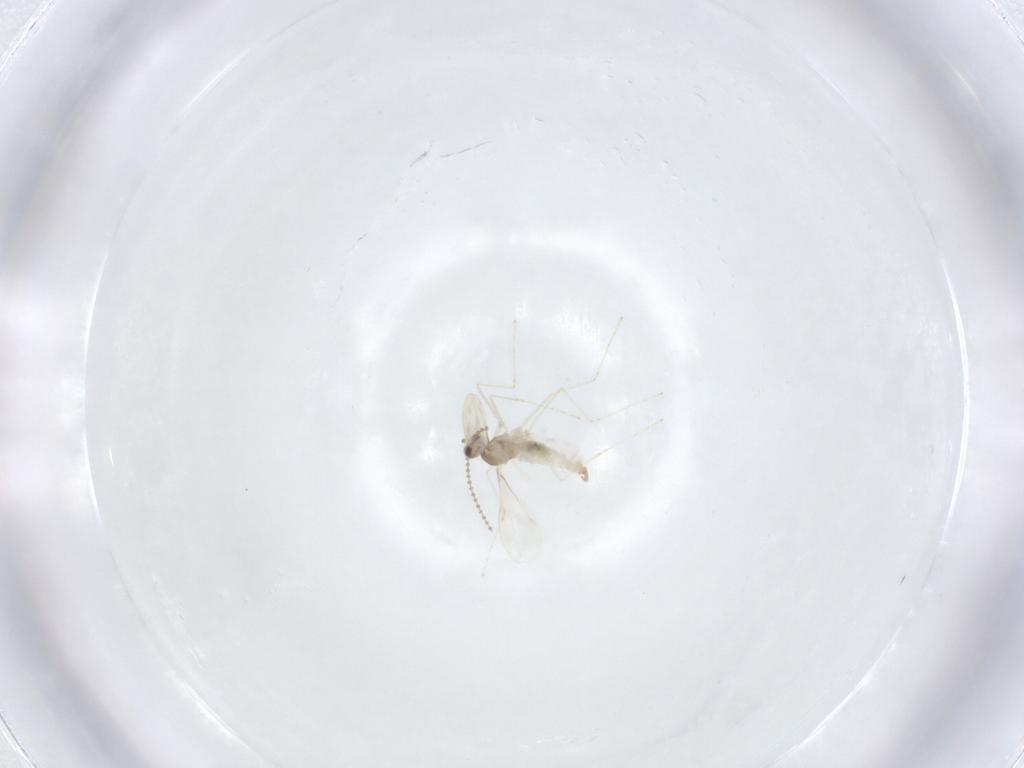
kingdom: Animalia
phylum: Arthropoda
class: Insecta
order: Diptera
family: Cecidomyiidae
